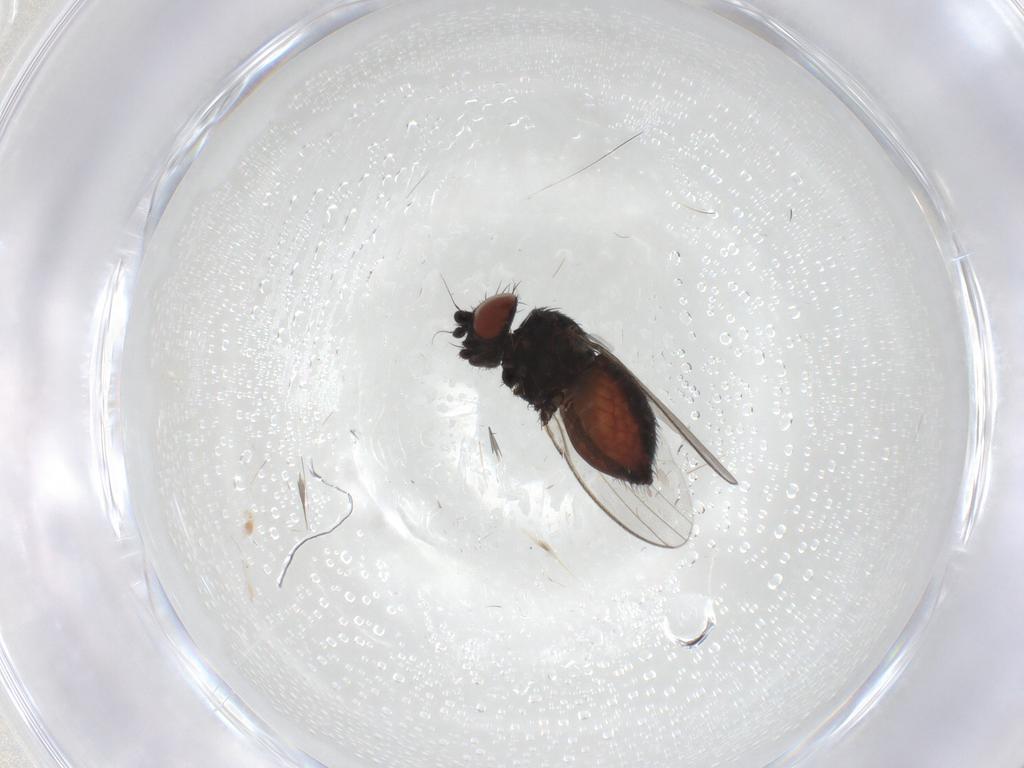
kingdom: Animalia
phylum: Arthropoda
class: Insecta
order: Diptera
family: Milichiidae
